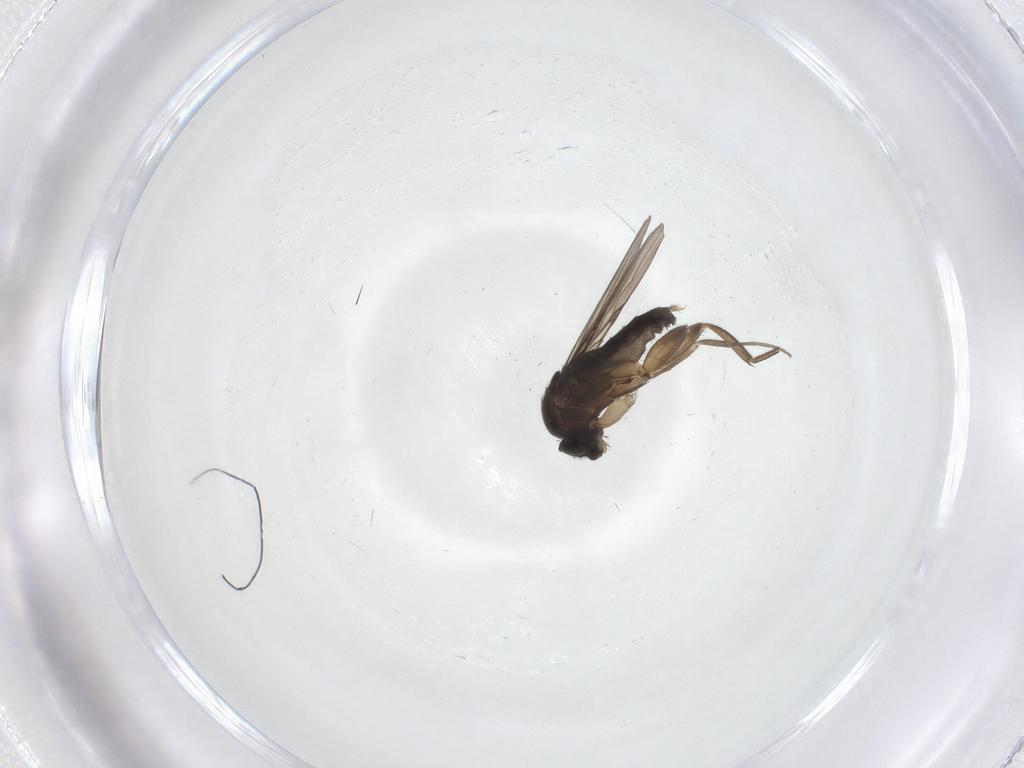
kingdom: Animalia
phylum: Arthropoda
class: Insecta
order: Diptera
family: Phoridae
